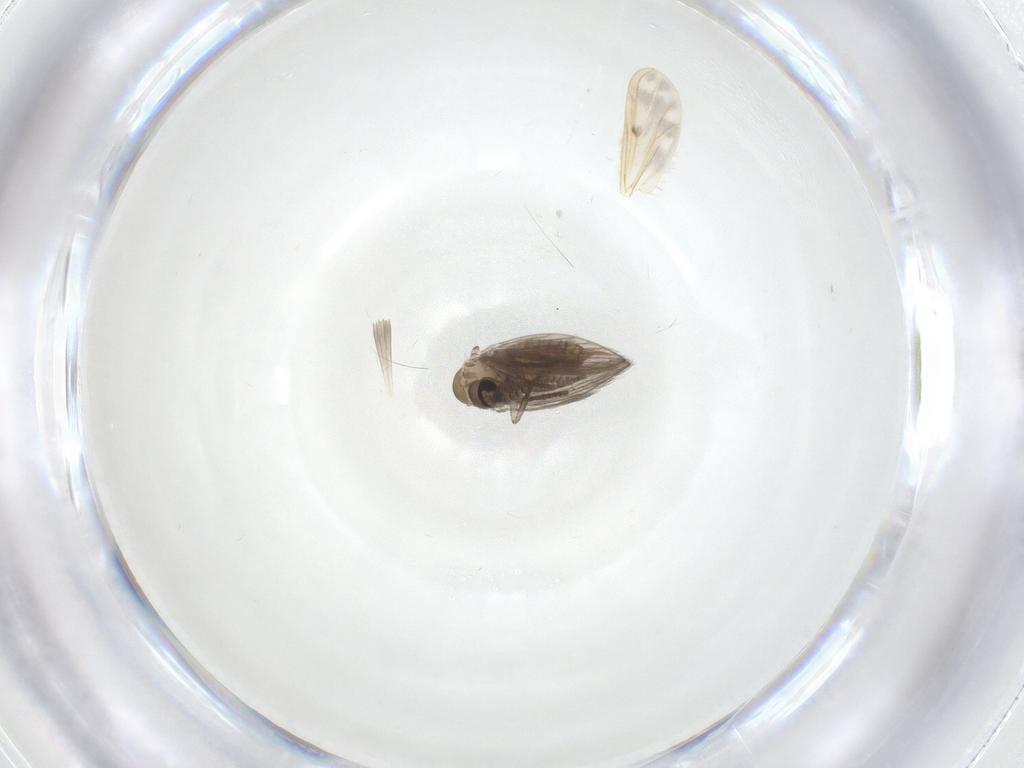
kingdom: Animalia
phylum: Arthropoda
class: Insecta
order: Diptera
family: Psychodidae
